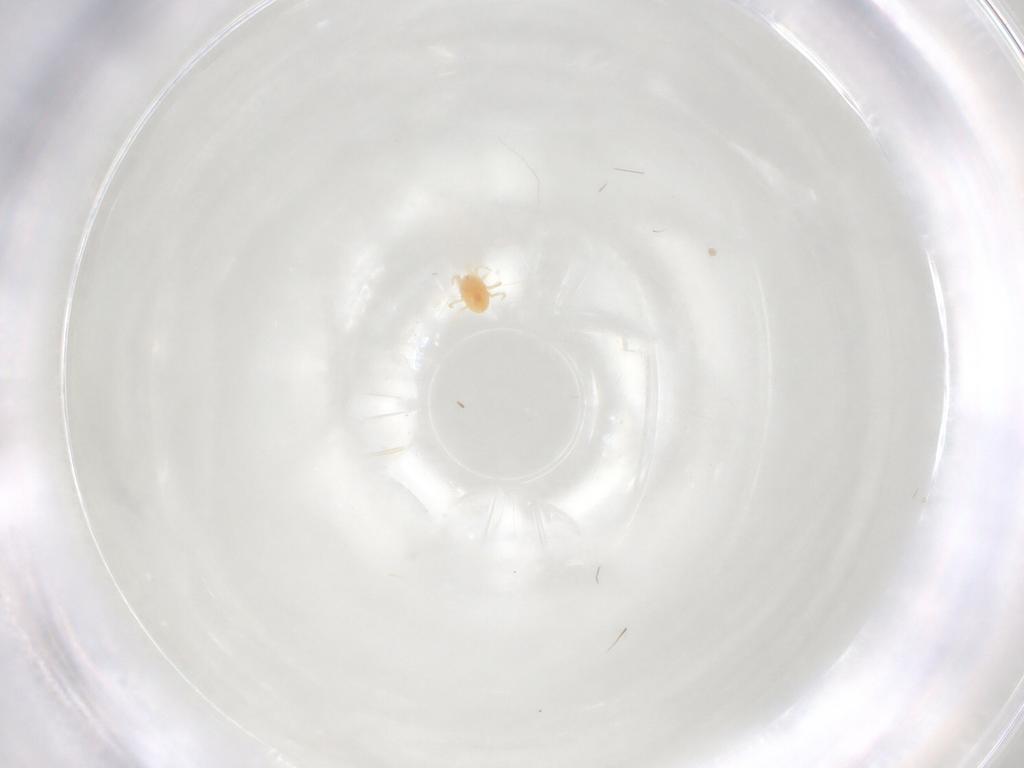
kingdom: Animalia
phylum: Arthropoda
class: Arachnida
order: Trombidiformes
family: Tetranychidae
